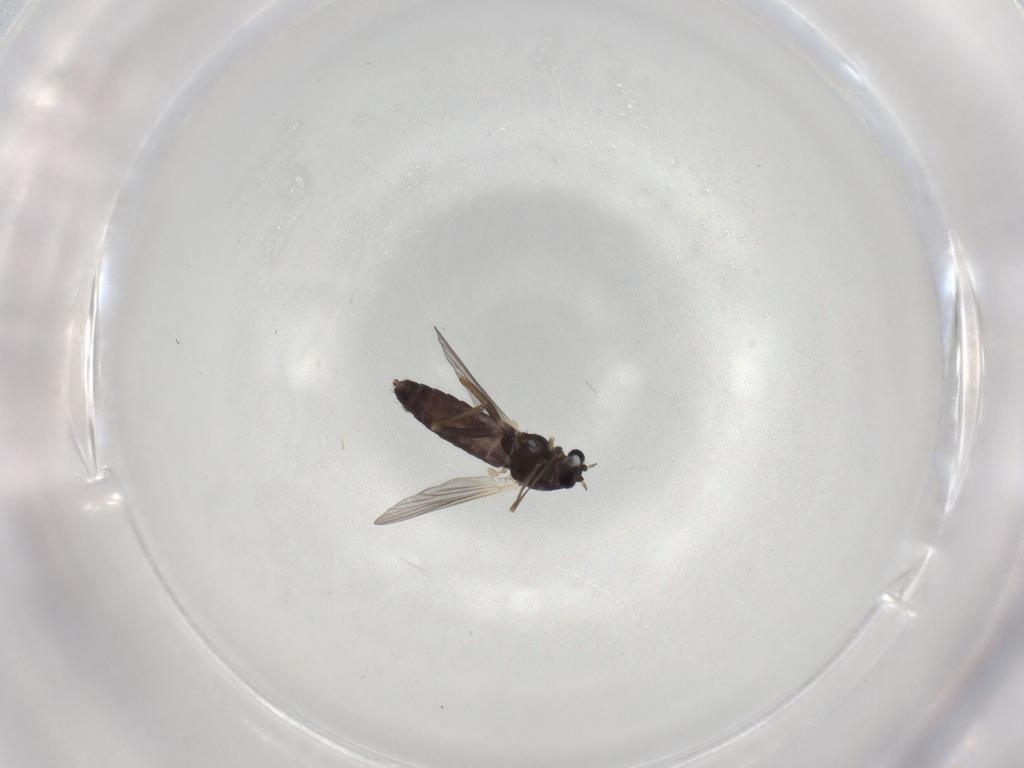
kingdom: Animalia
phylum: Arthropoda
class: Insecta
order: Diptera
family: Chironomidae
